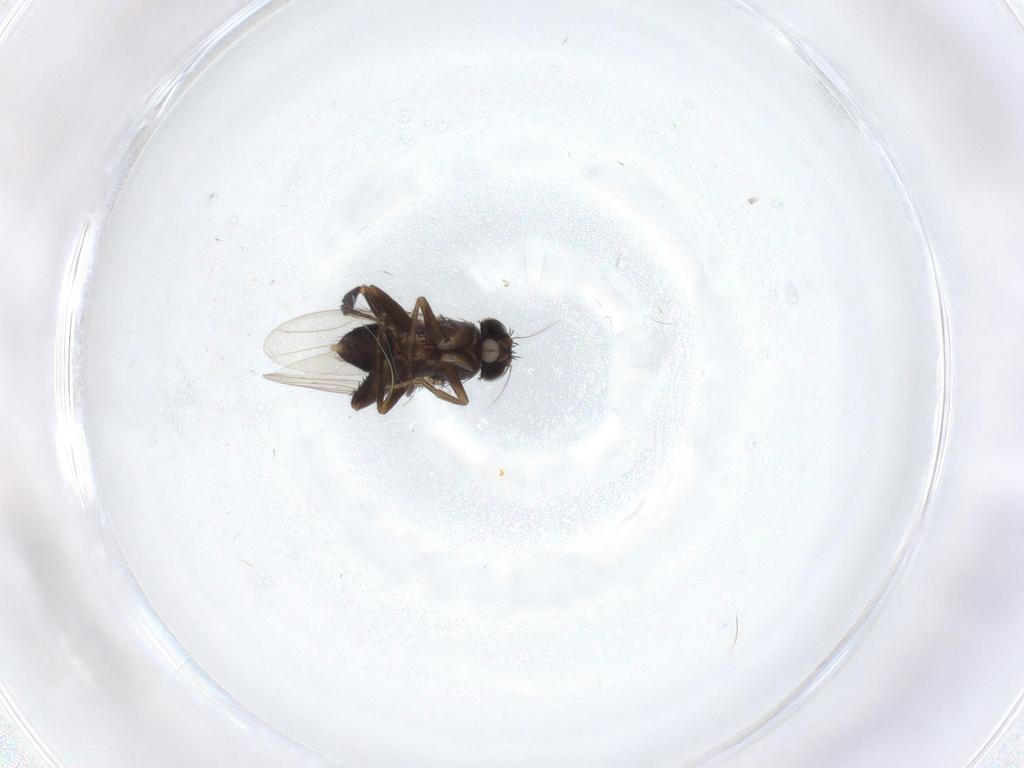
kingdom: Animalia
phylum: Arthropoda
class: Insecta
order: Diptera
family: Phoridae
